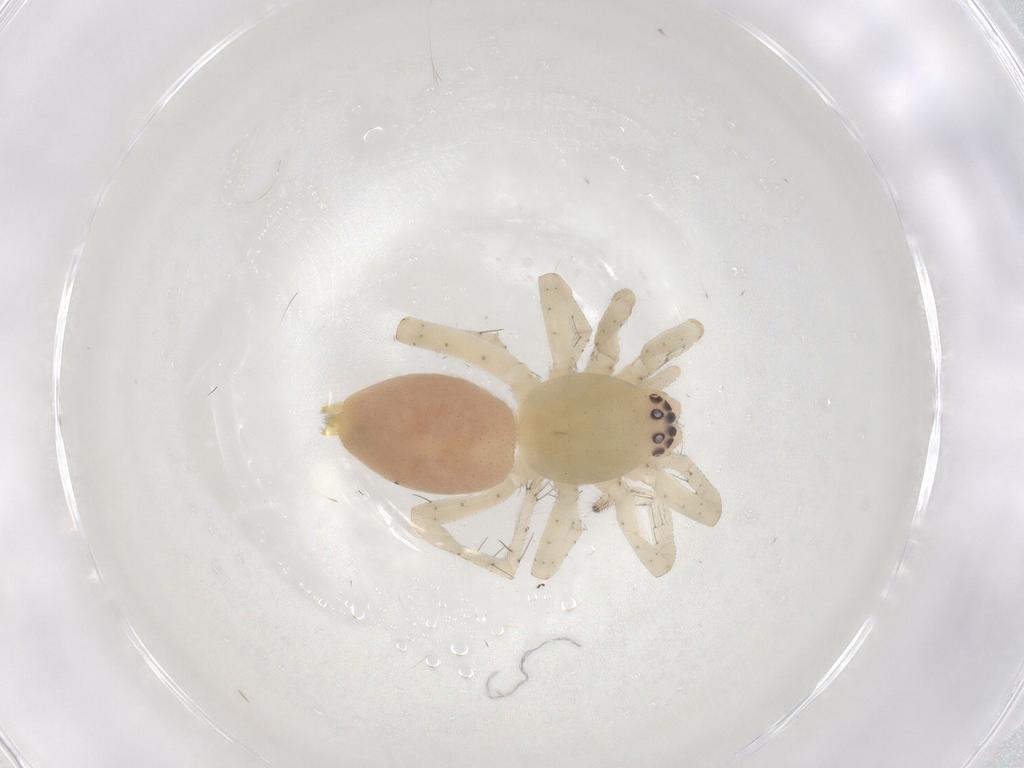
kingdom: Animalia
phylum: Arthropoda
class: Arachnida
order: Araneae
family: Clubionidae
